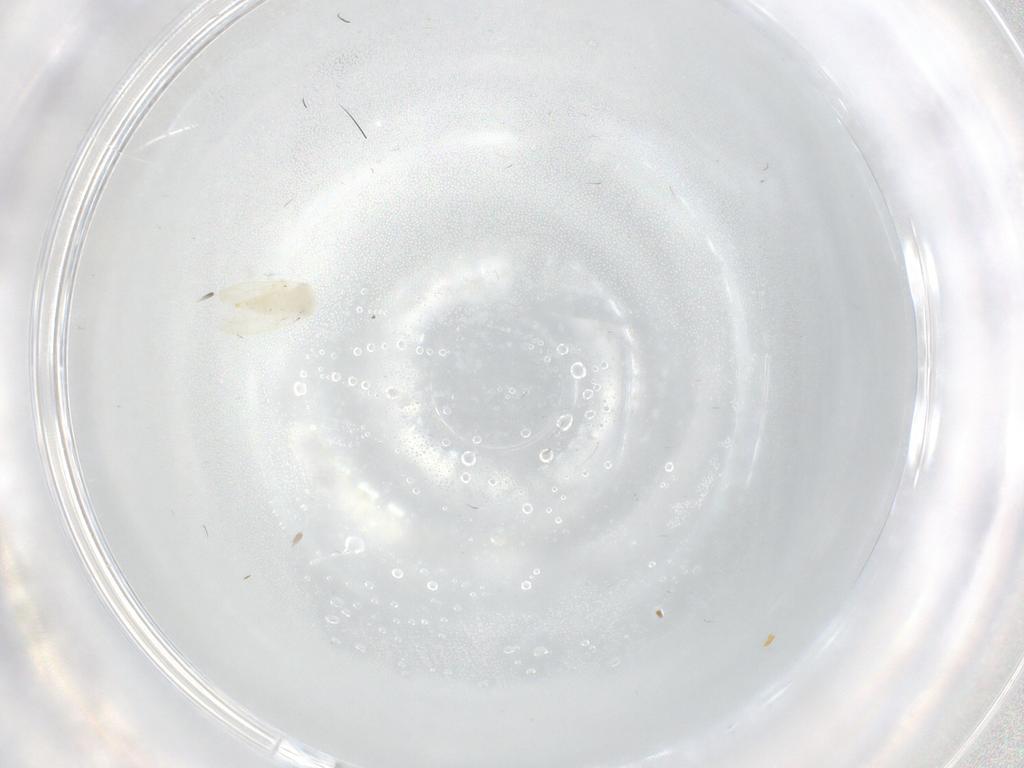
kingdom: Animalia
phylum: Arthropoda
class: Insecta
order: Hemiptera
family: Aleyrodidae
